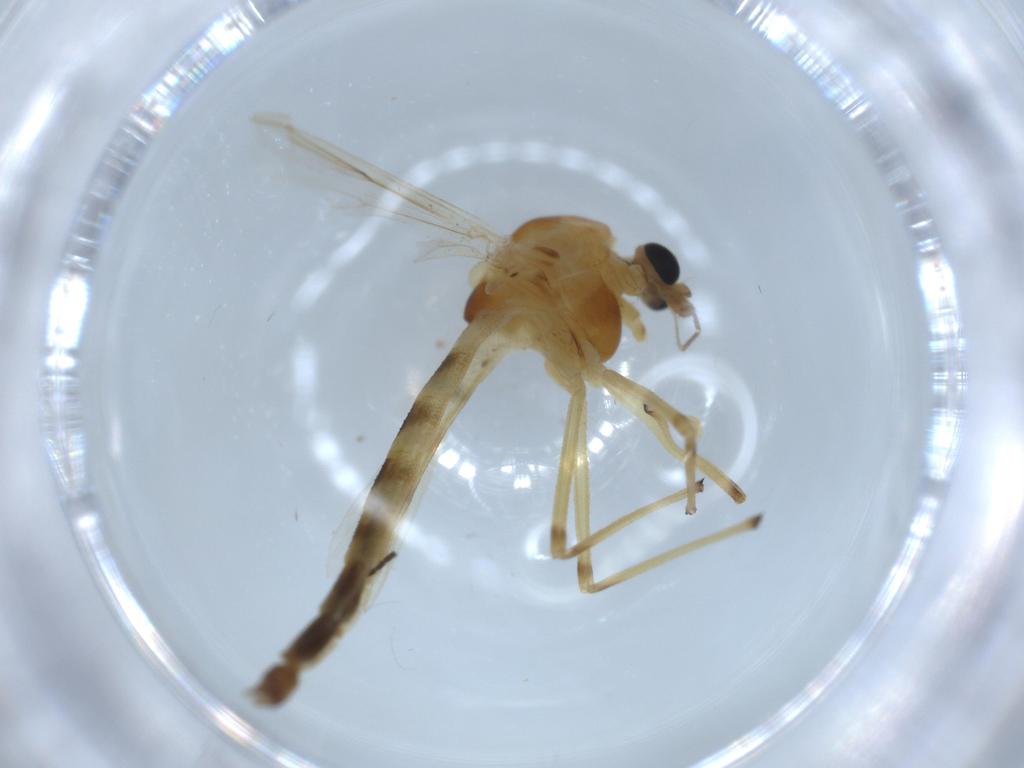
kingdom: Animalia
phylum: Arthropoda
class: Insecta
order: Diptera
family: Chironomidae
